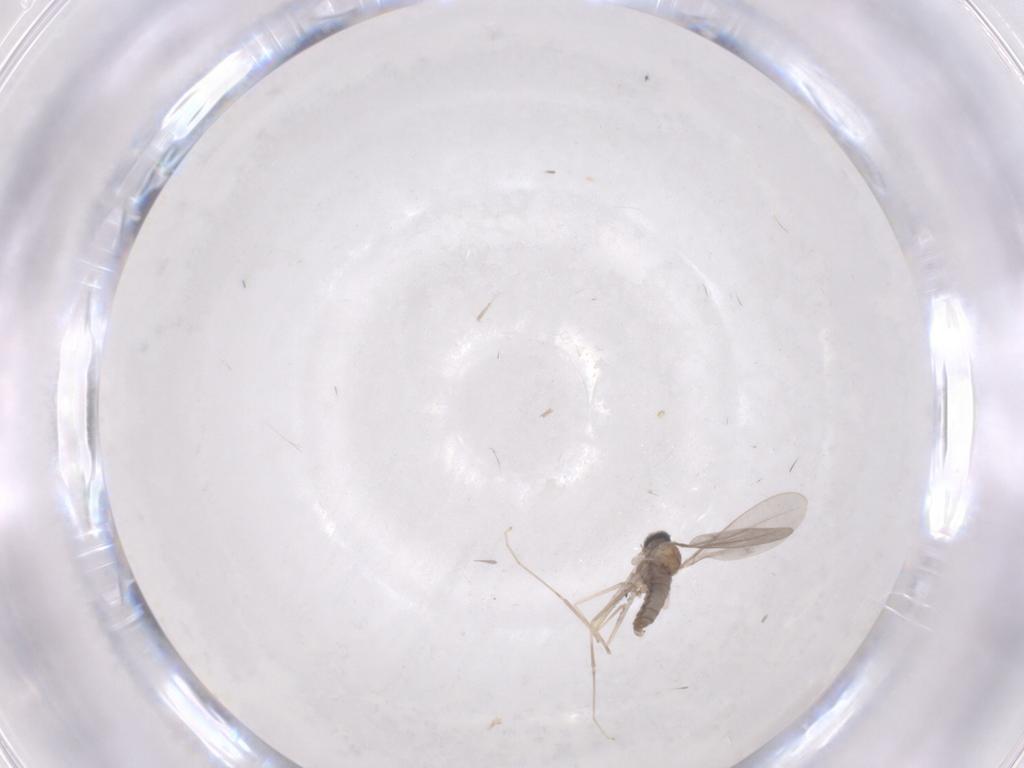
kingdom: Animalia
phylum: Arthropoda
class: Insecta
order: Diptera
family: Cecidomyiidae
